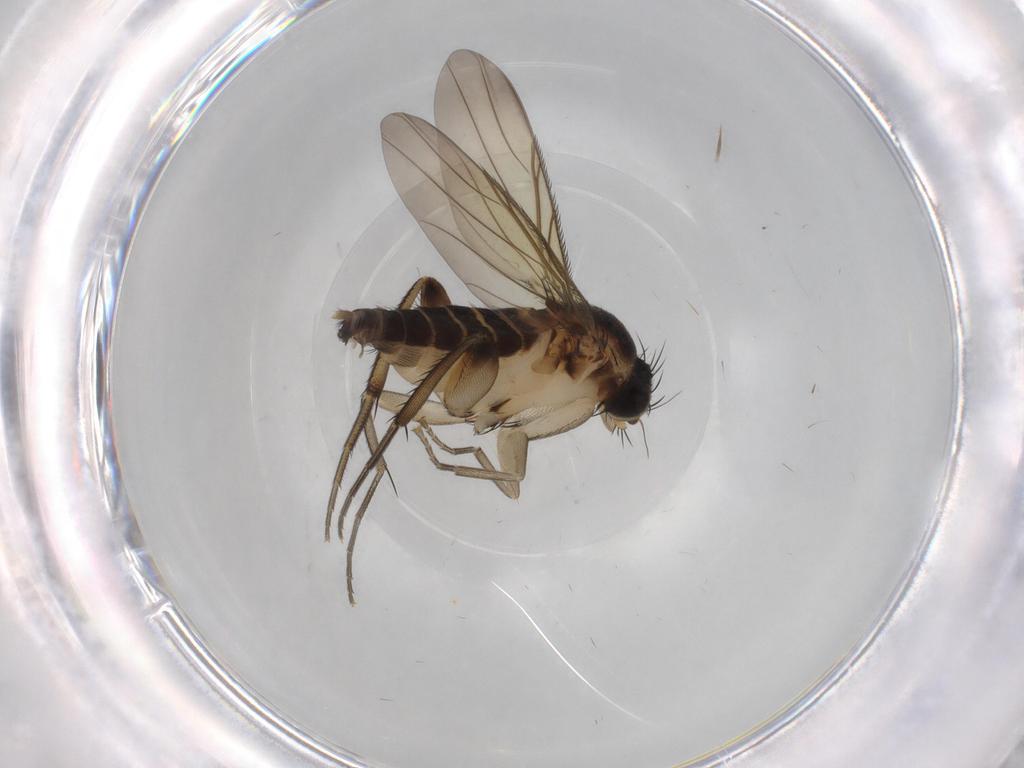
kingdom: Animalia
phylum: Arthropoda
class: Insecta
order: Diptera
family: Phoridae
